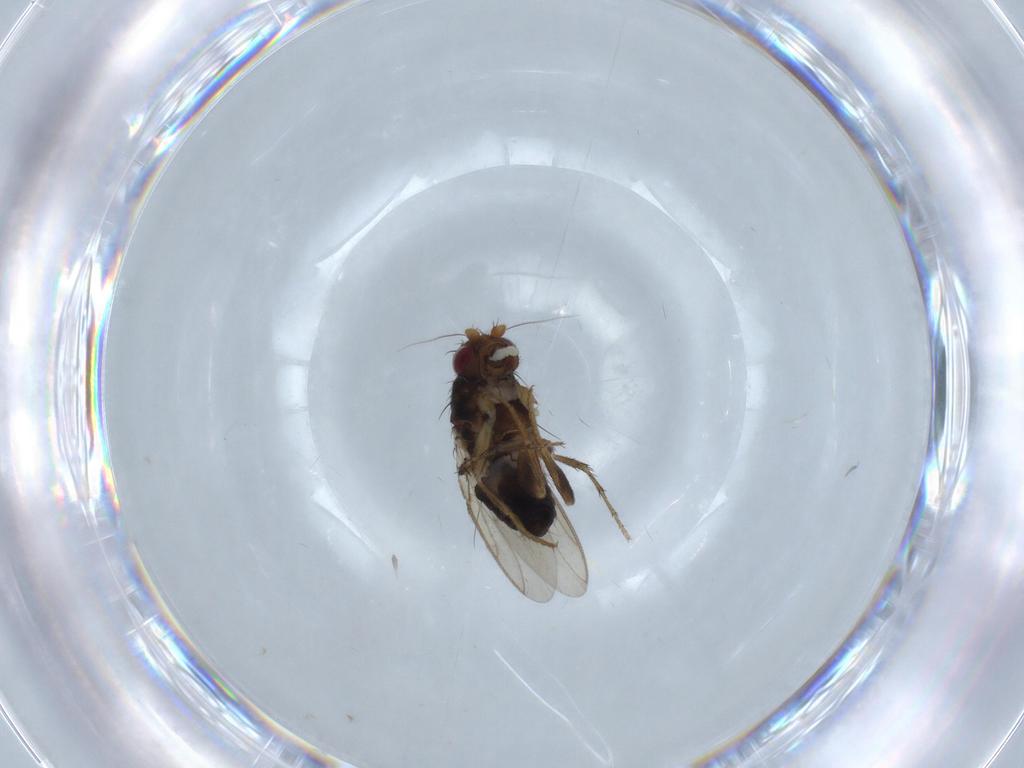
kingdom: Animalia
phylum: Arthropoda
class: Insecta
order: Diptera
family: Sphaeroceridae
